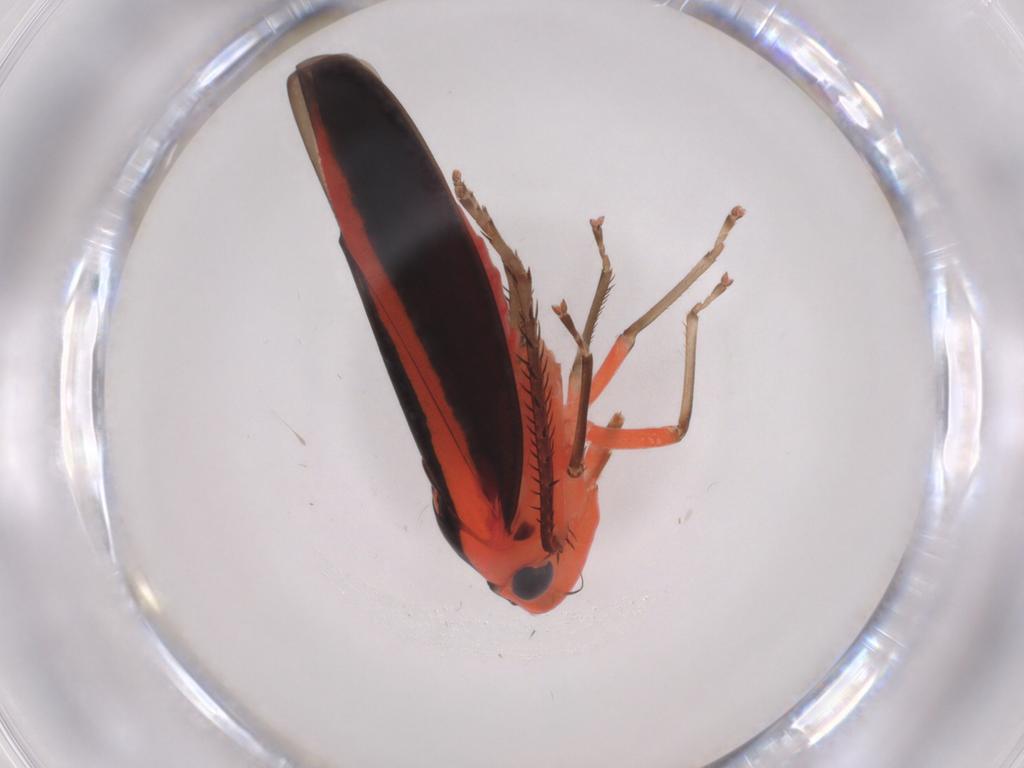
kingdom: Animalia
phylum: Arthropoda
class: Insecta
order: Hemiptera
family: Cicadellidae
